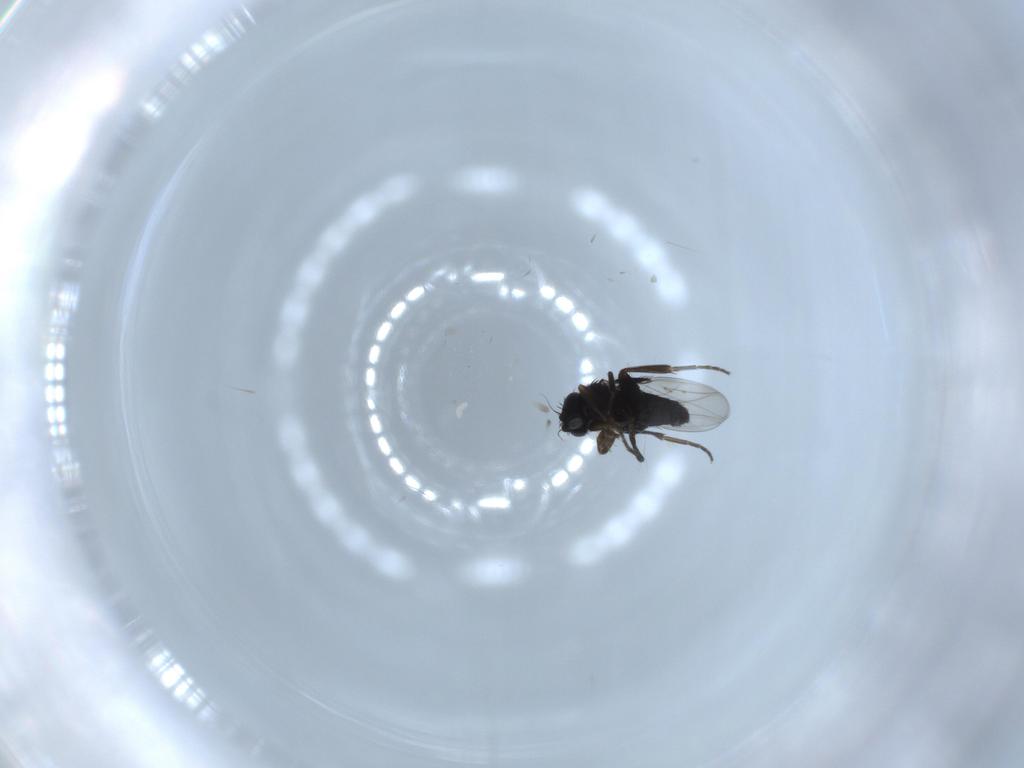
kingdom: Animalia
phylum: Arthropoda
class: Insecta
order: Diptera
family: Phoridae
